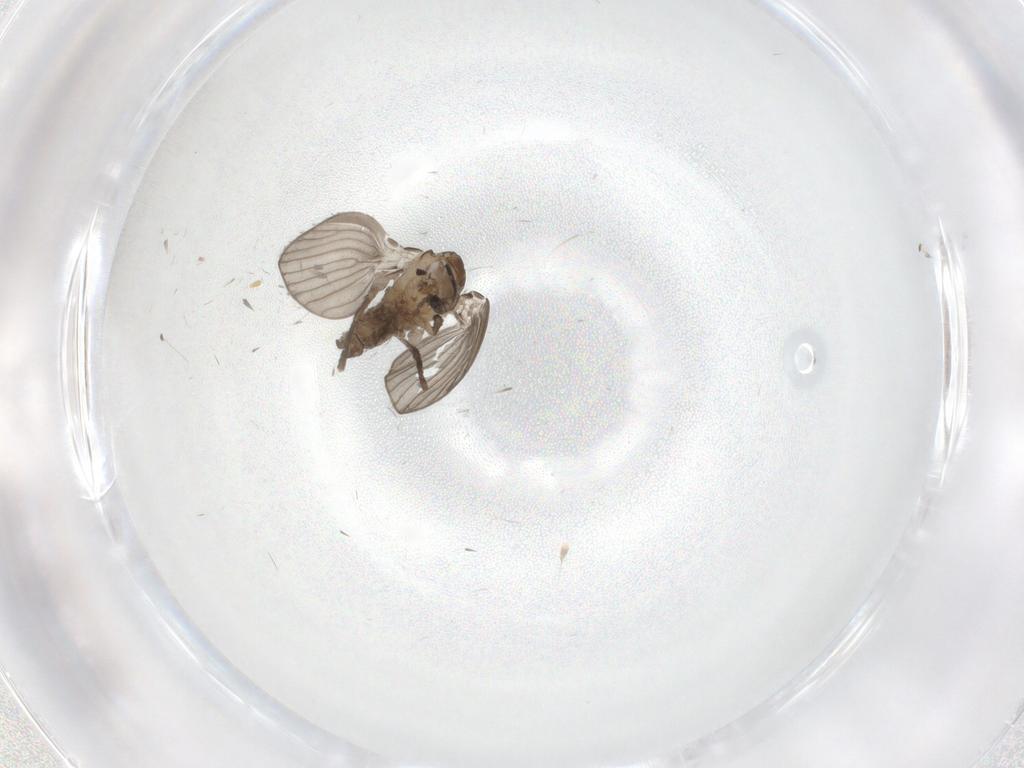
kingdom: Animalia
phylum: Arthropoda
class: Insecta
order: Diptera
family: Psychodidae
